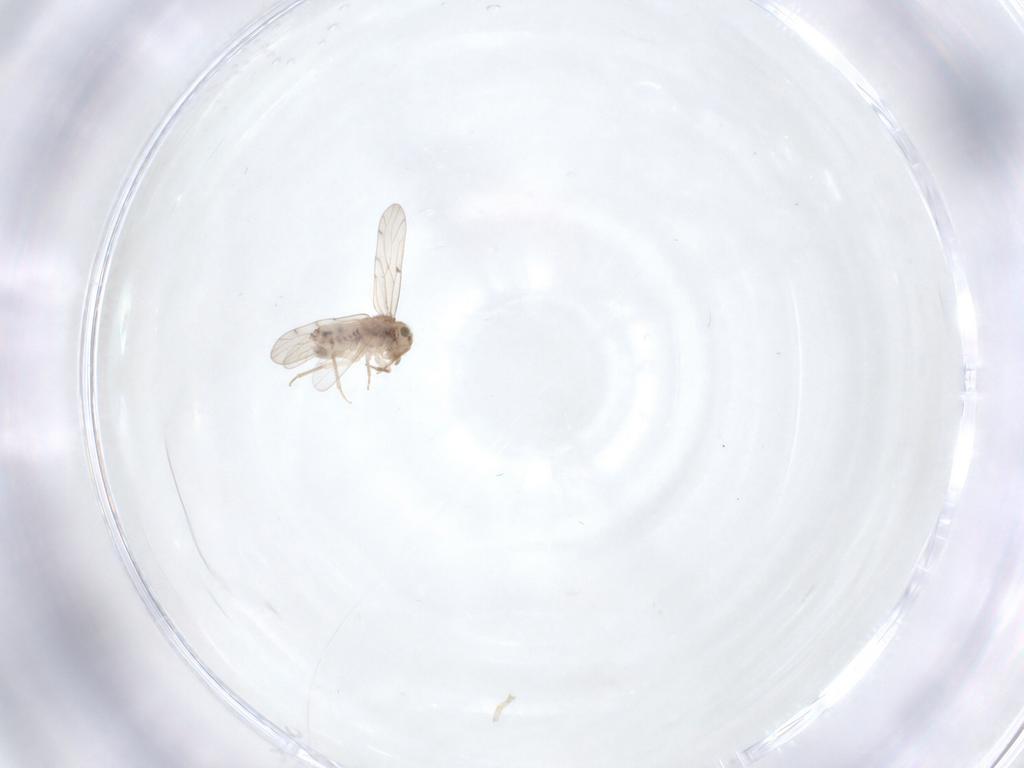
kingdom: Animalia
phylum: Arthropoda
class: Insecta
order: Psocodea
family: Ectopsocidae
